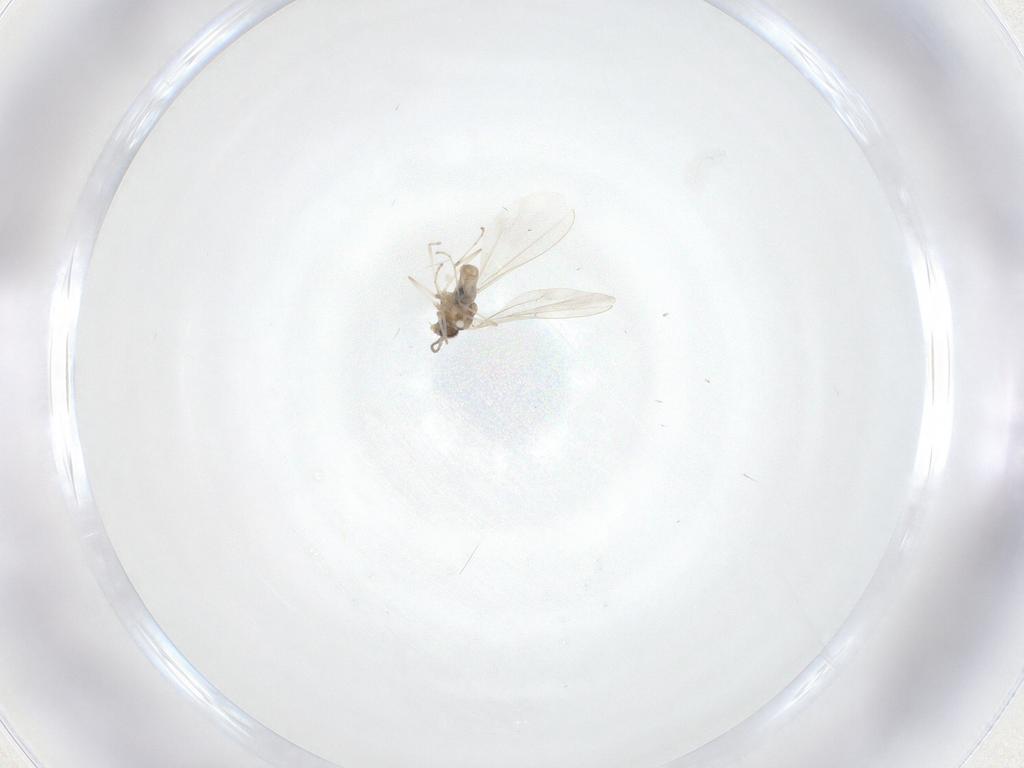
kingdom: Animalia
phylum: Arthropoda
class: Insecta
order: Diptera
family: Cecidomyiidae
